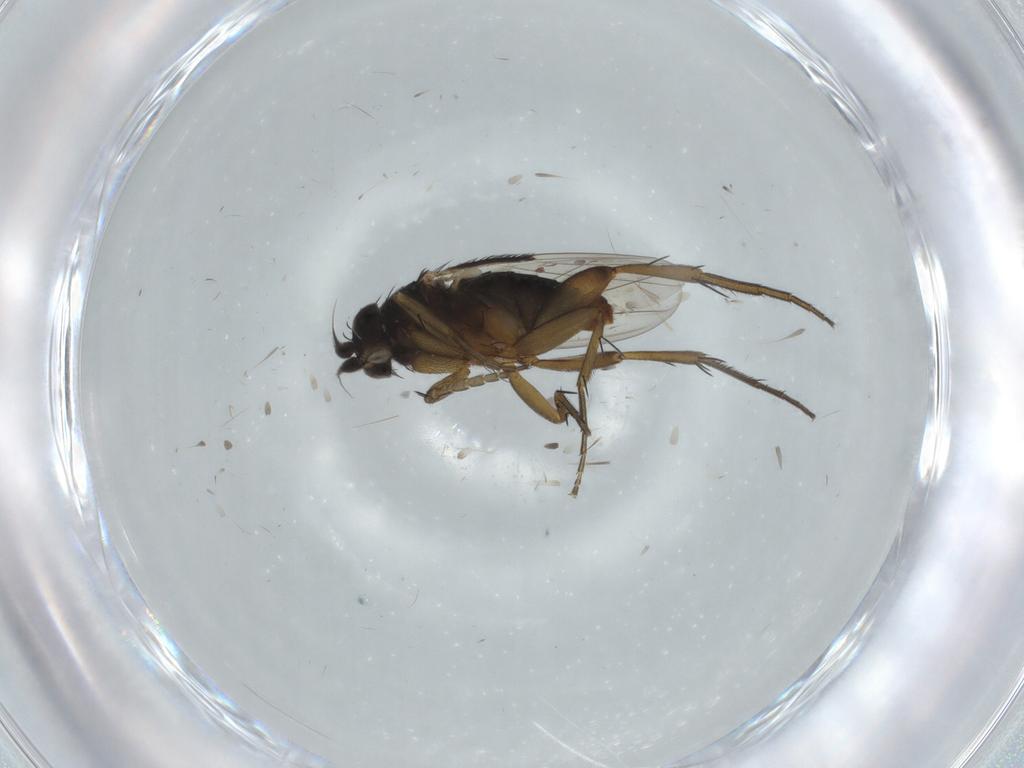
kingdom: Animalia
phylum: Arthropoda
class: Insecta
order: Diptera
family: Phoridae
